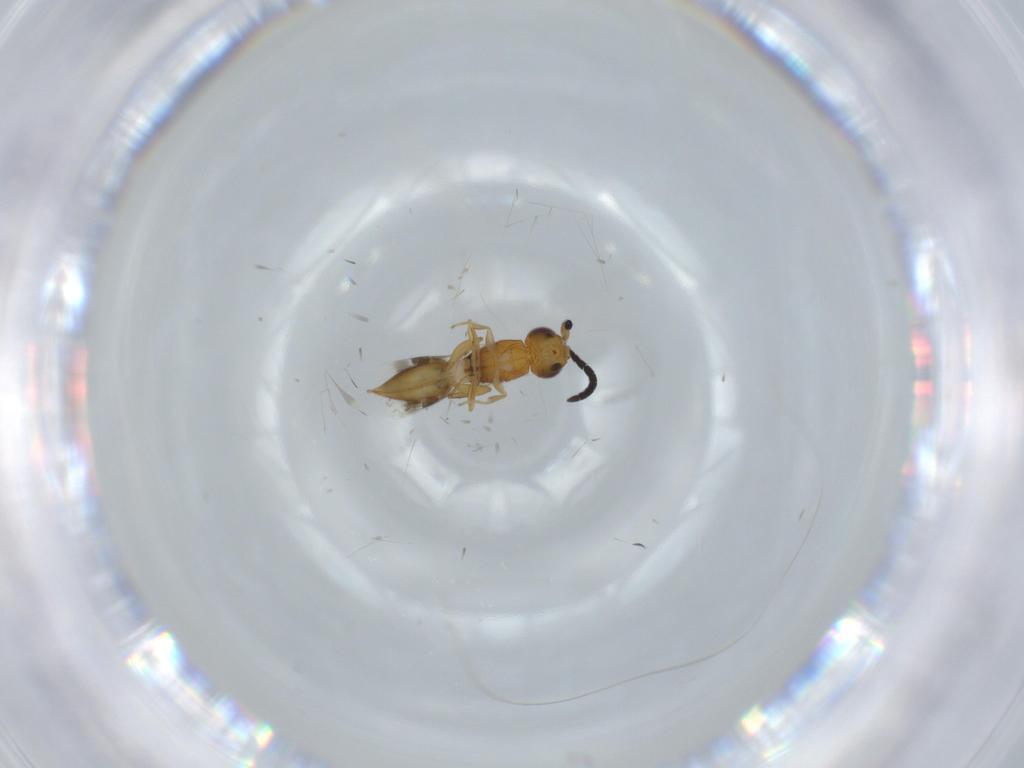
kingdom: Animalia
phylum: Arthropoda
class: Insecta
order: Hymenoptera
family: Megaspilidae
